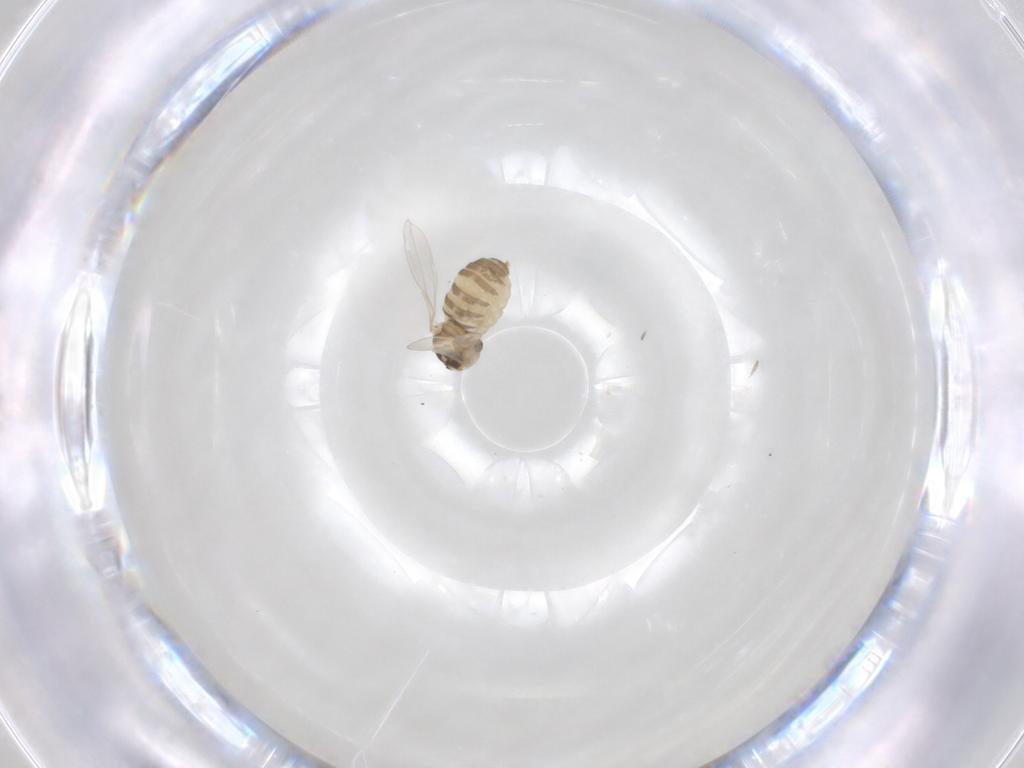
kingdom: Animalia
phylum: Arthropoda
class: Insecta
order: Diptera
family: Cecidomyiidae
